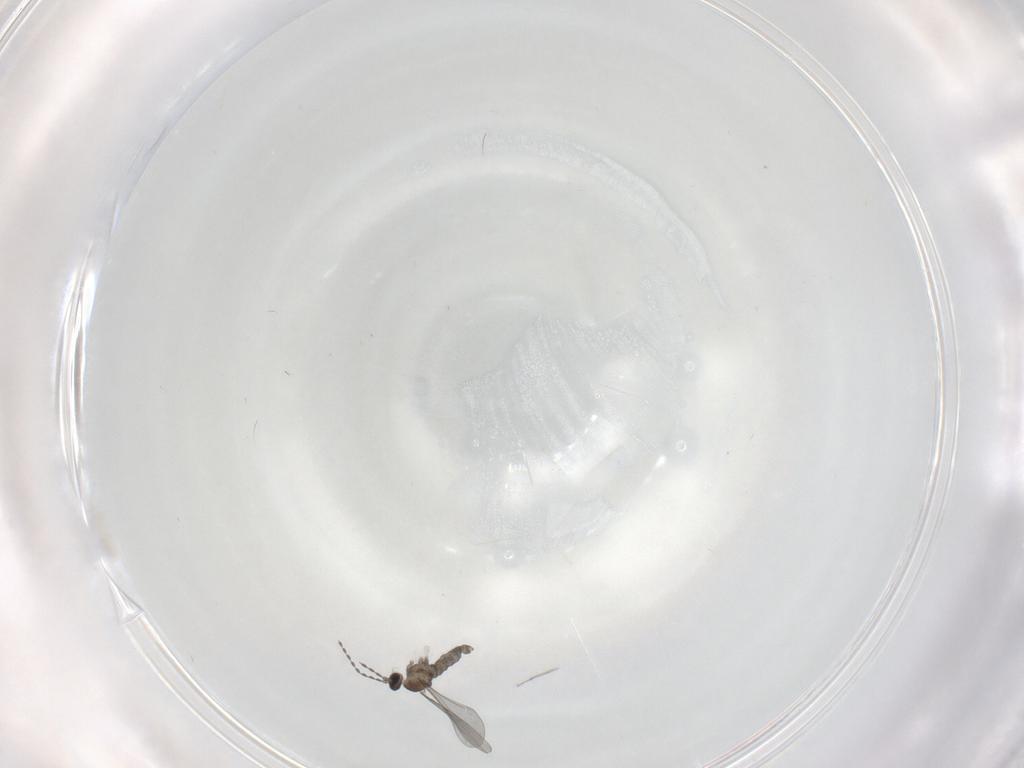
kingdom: Animalia
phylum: Arthropoda
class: Insecta
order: Diptera
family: Cecidomyiidae
